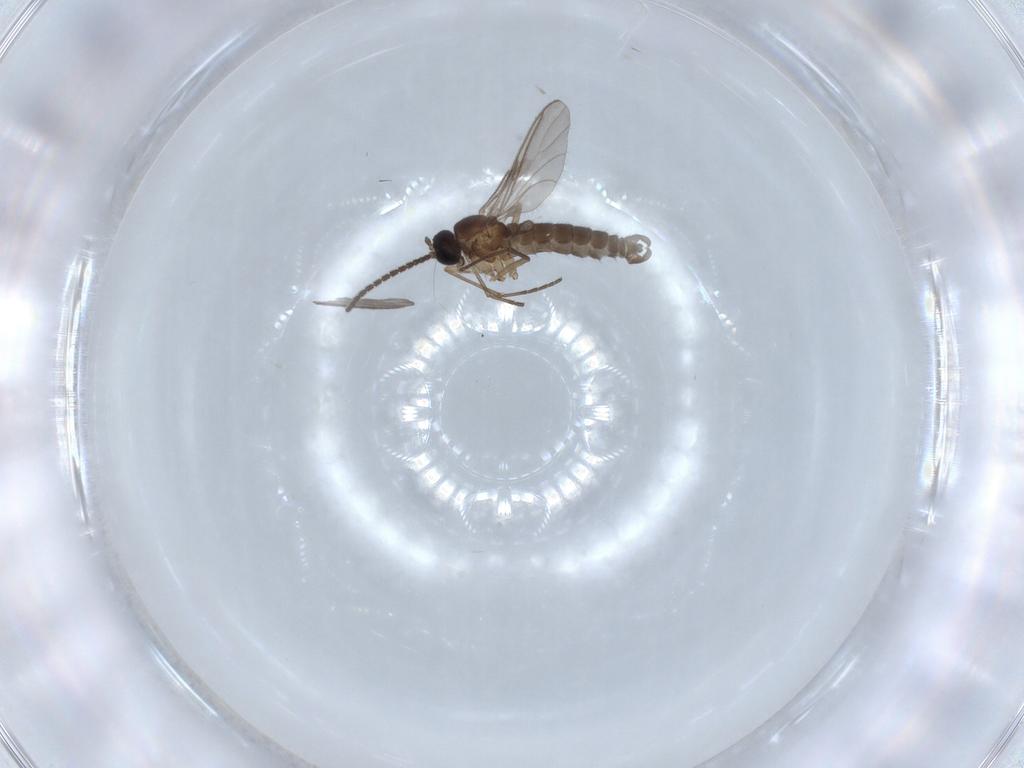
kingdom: Animalia
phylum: Arthropoda
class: Insecta
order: Diptera
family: Sciaridae
